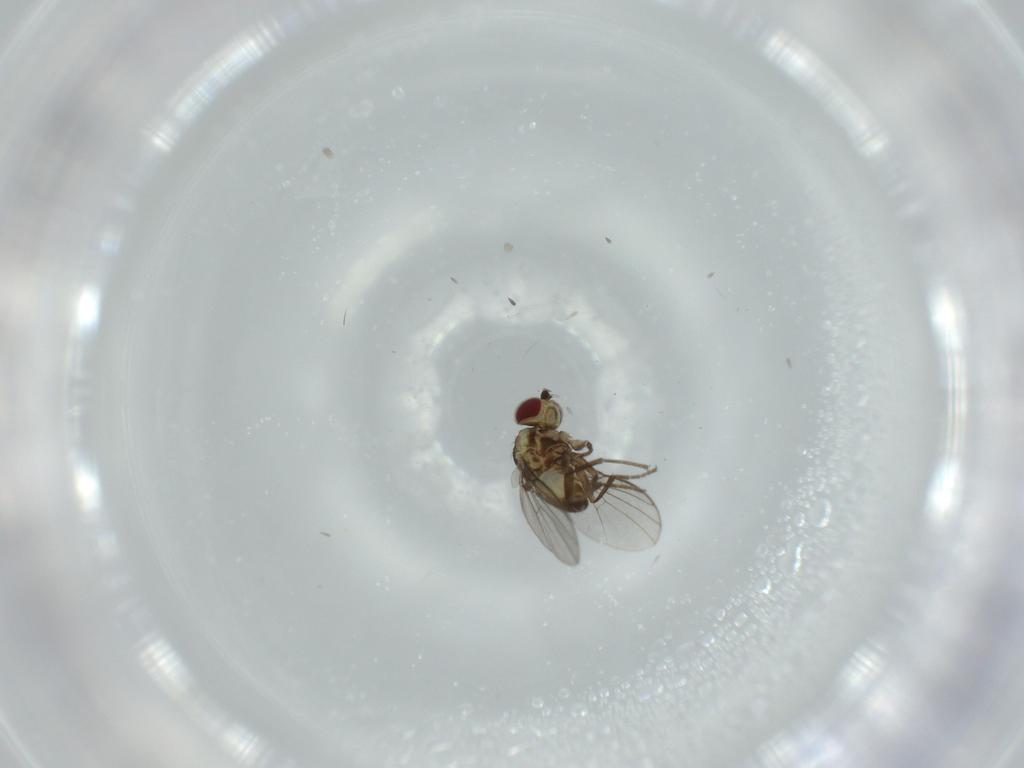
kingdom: Animalia
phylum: Arthropoda
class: Insecta
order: Diptera
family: Agromyzidae
